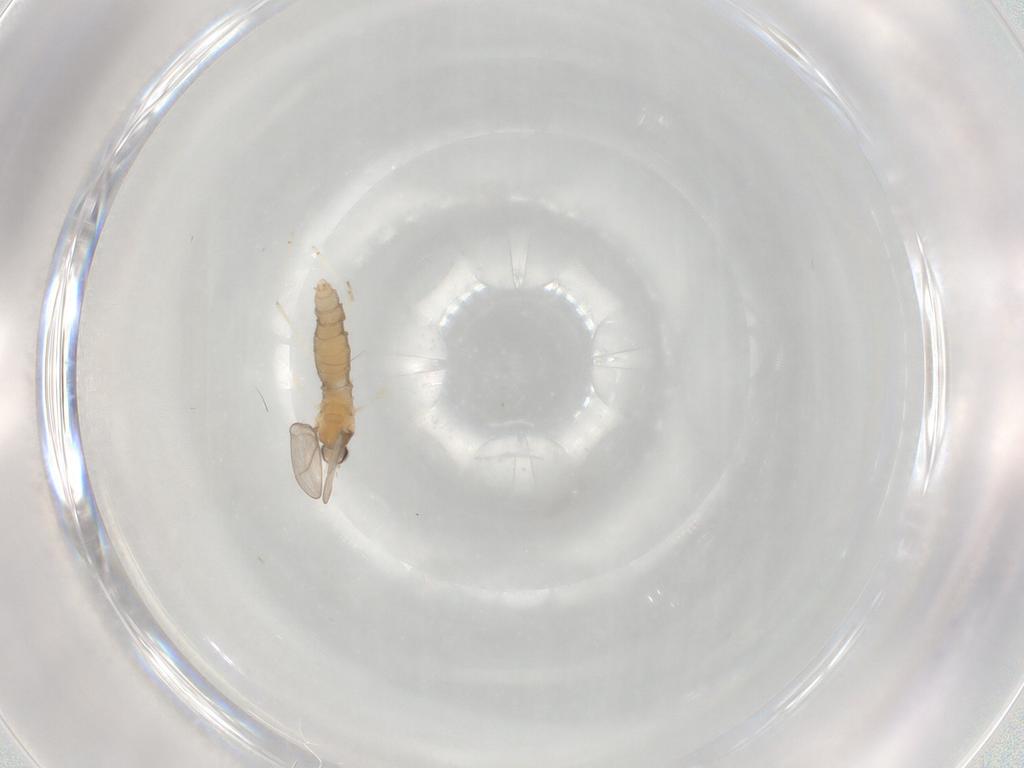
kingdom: Animalia
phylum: Arthropoda
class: Insecta
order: Diptera
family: Cecidomyiidae
